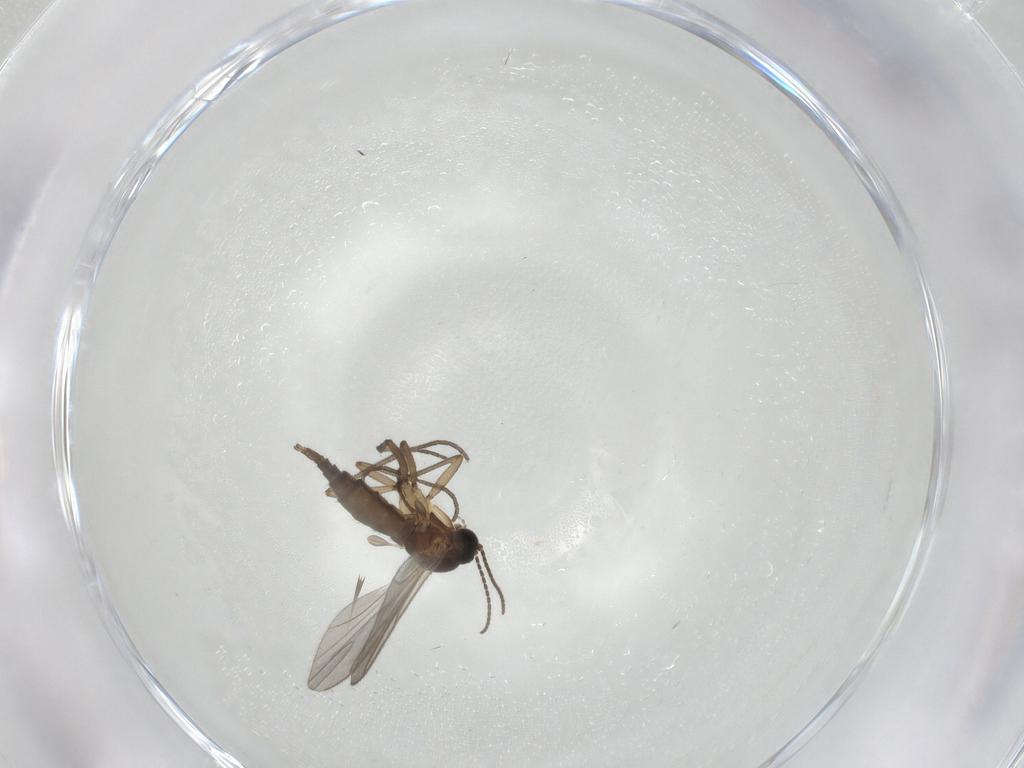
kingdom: Animalia
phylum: Arthropoda
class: Insecta
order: Diptera
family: Sciaridae
